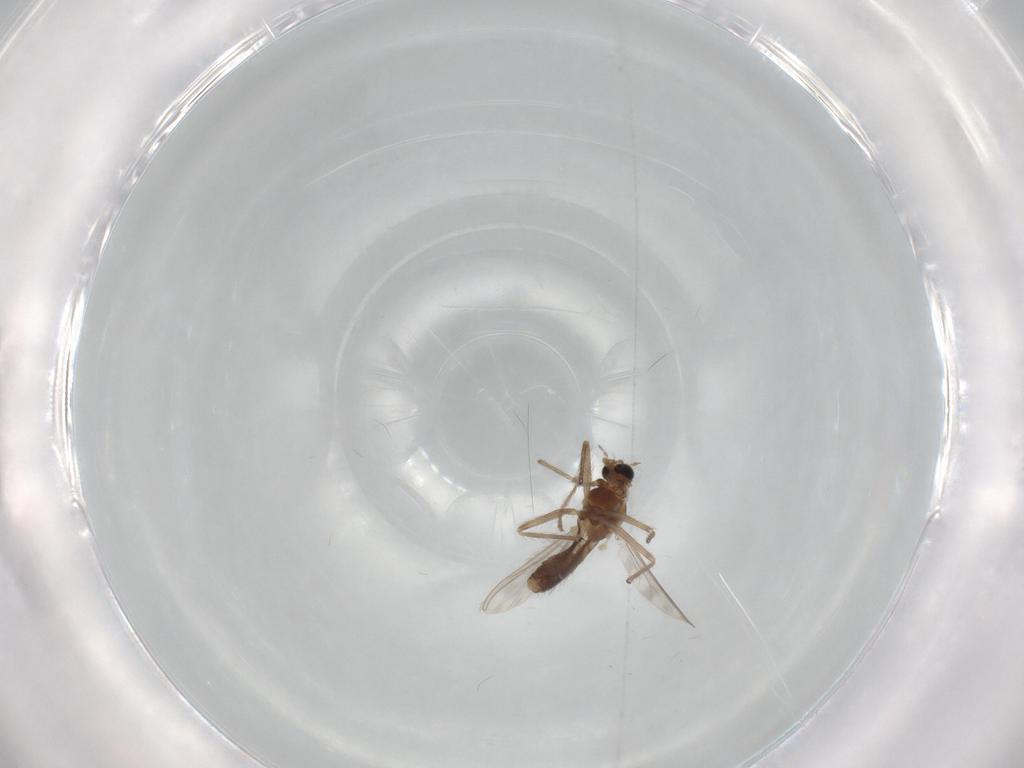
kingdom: Animalia
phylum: Arthropoda
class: Insecta
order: Diptera
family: Chironomidae
